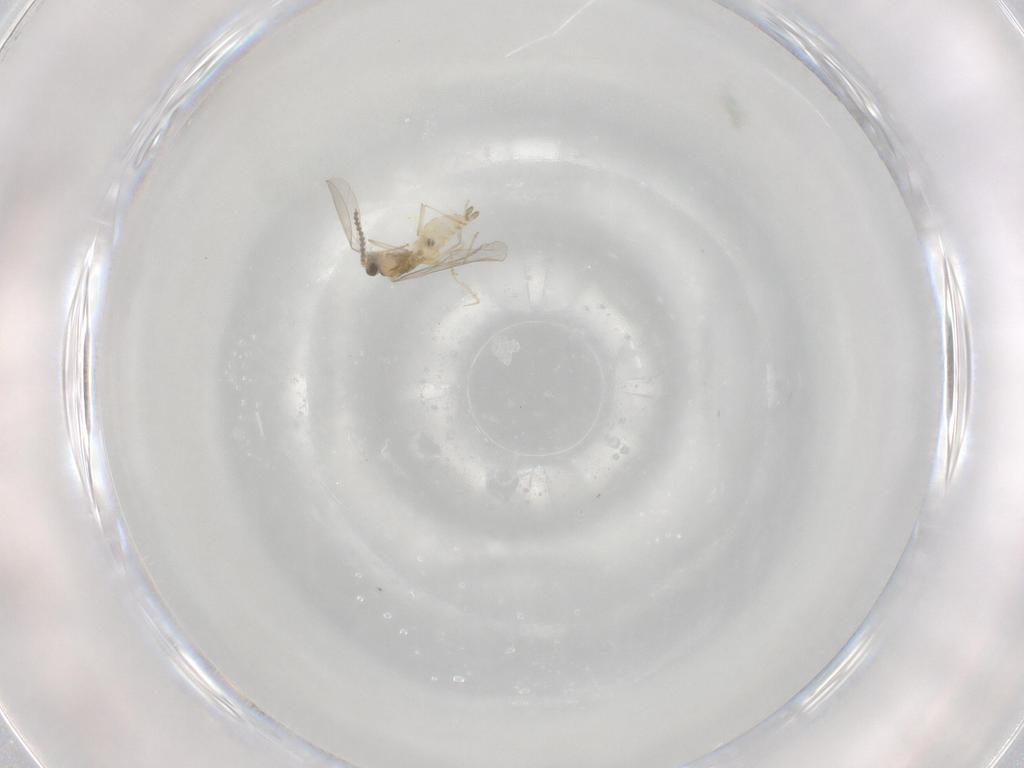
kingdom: Animalia
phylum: Arthropoda
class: Insecta
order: Diptera
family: Cecidomyiidae
